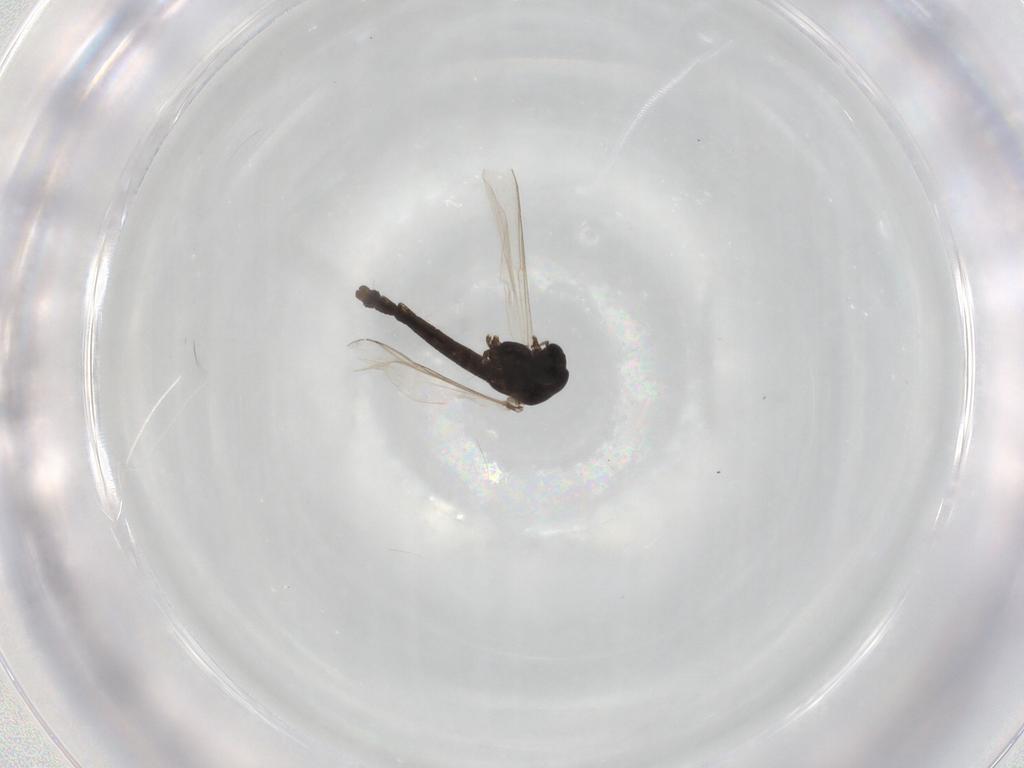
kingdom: Animalia
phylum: Arthropoda
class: Insecta
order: Diptera
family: Chironomidae
